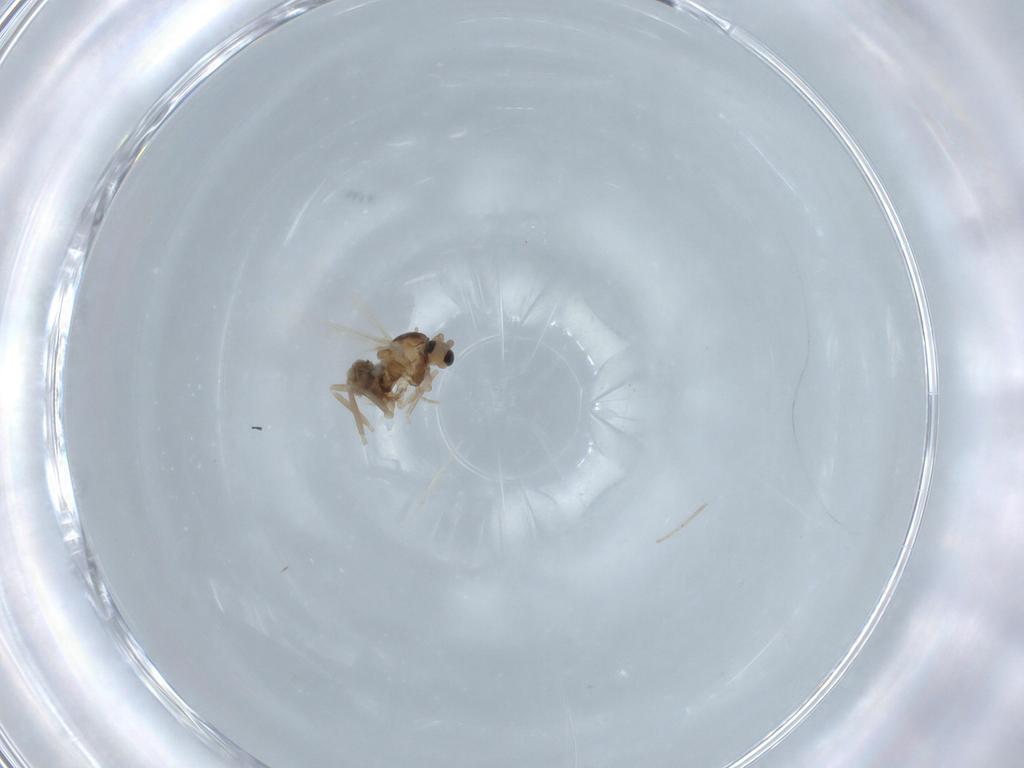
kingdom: Animalia
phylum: Arthropoda
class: Insecta
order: Diptera
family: Cecidomyiidae
